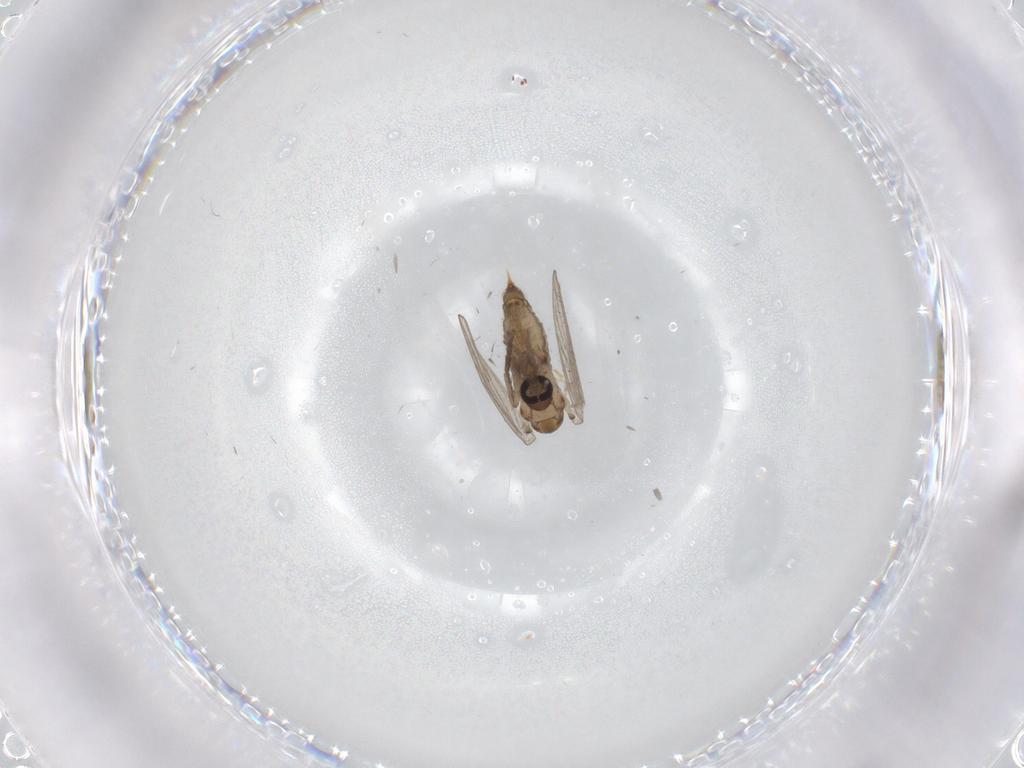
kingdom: Animalia
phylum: Arthropoda
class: Insecta
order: Diptera
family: Psychodidae
